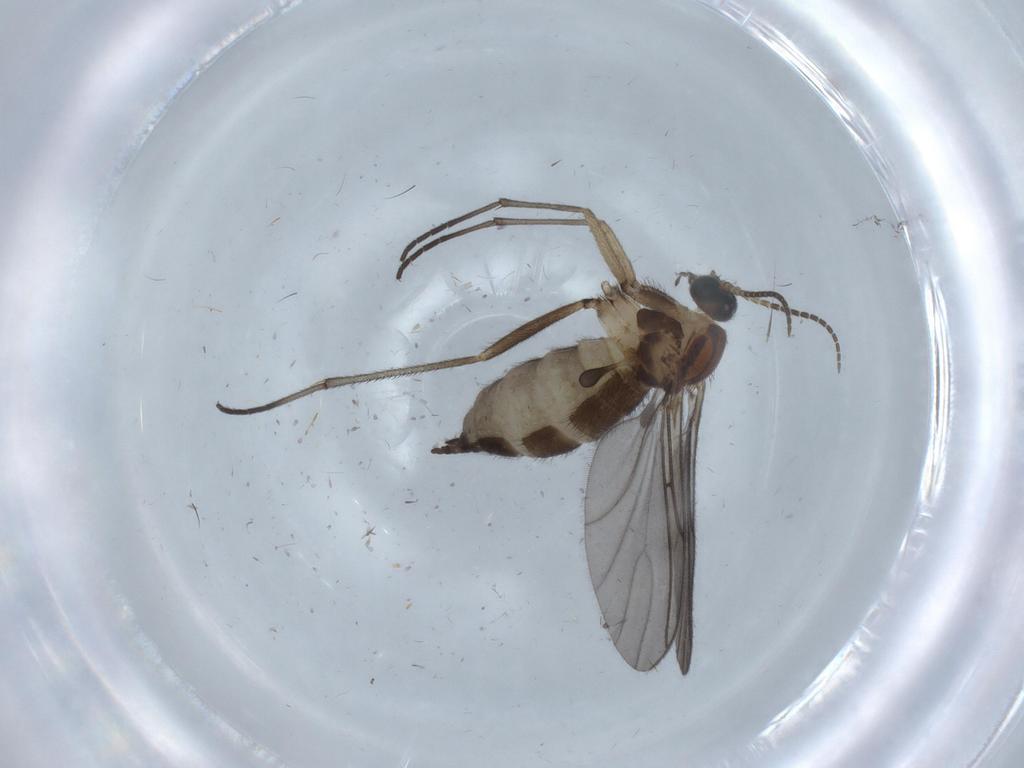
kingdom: Animalia
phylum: Arthropoda
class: Insecta
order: Diptera
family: Sciaridae
